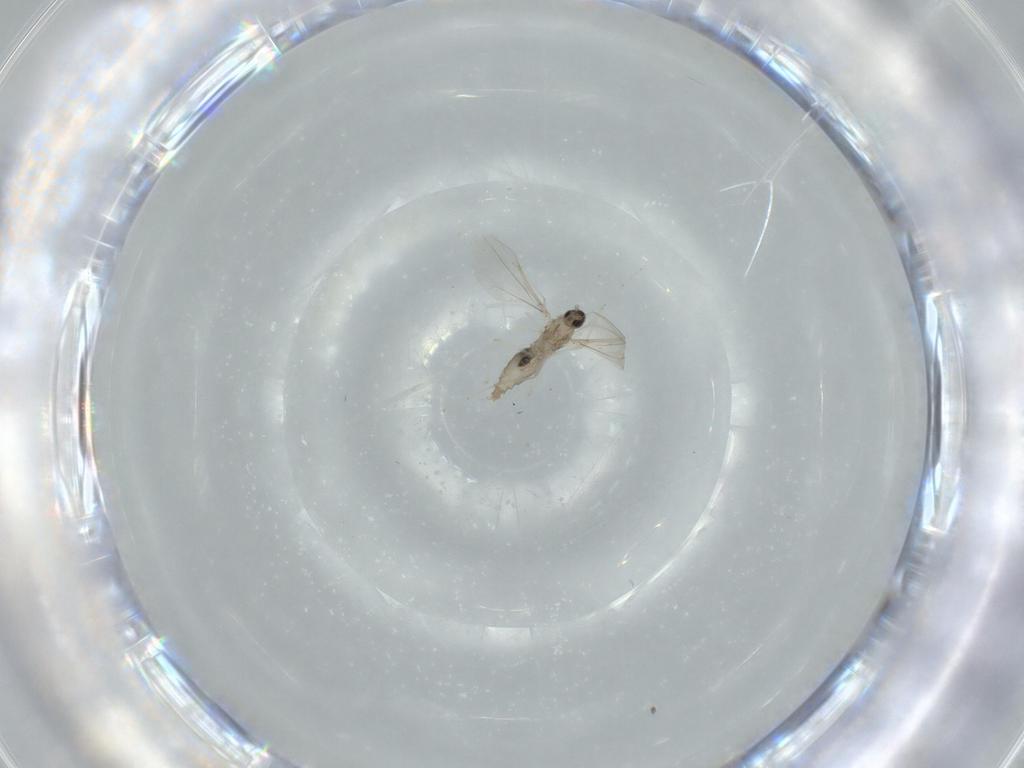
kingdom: Animalia
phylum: Arthropoda
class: Insecta
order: Diptera
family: Cecidomyiidae
